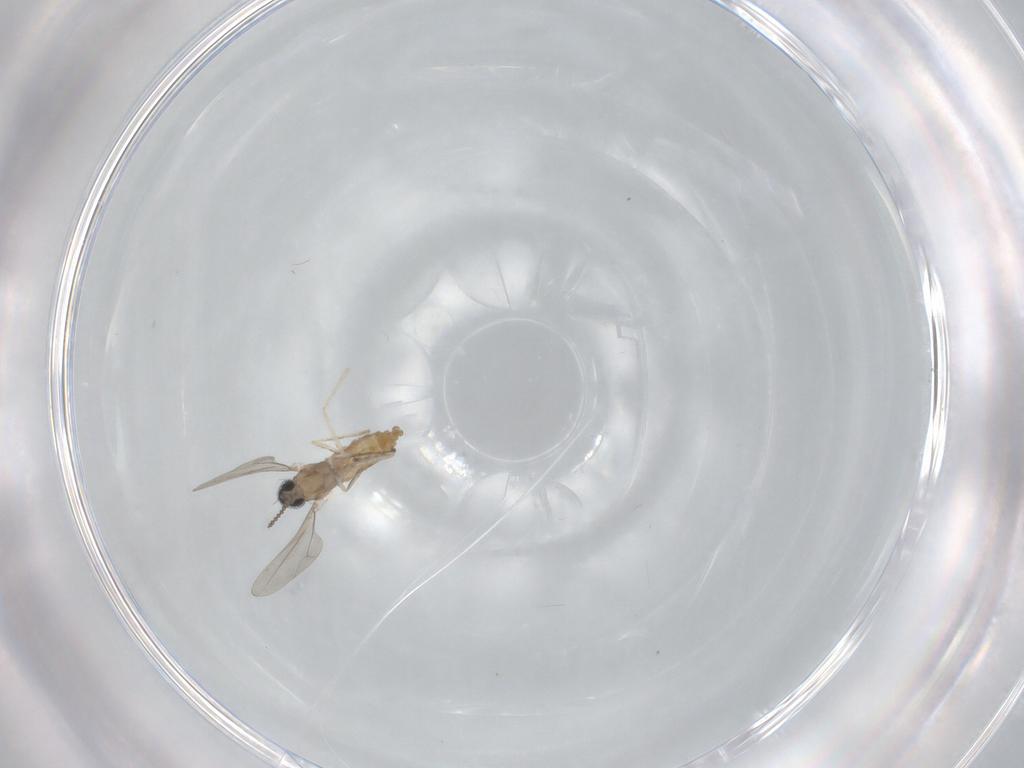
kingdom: Animalia
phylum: Arthropoda
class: Insecta
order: Diptera
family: Cecidomyiidae
